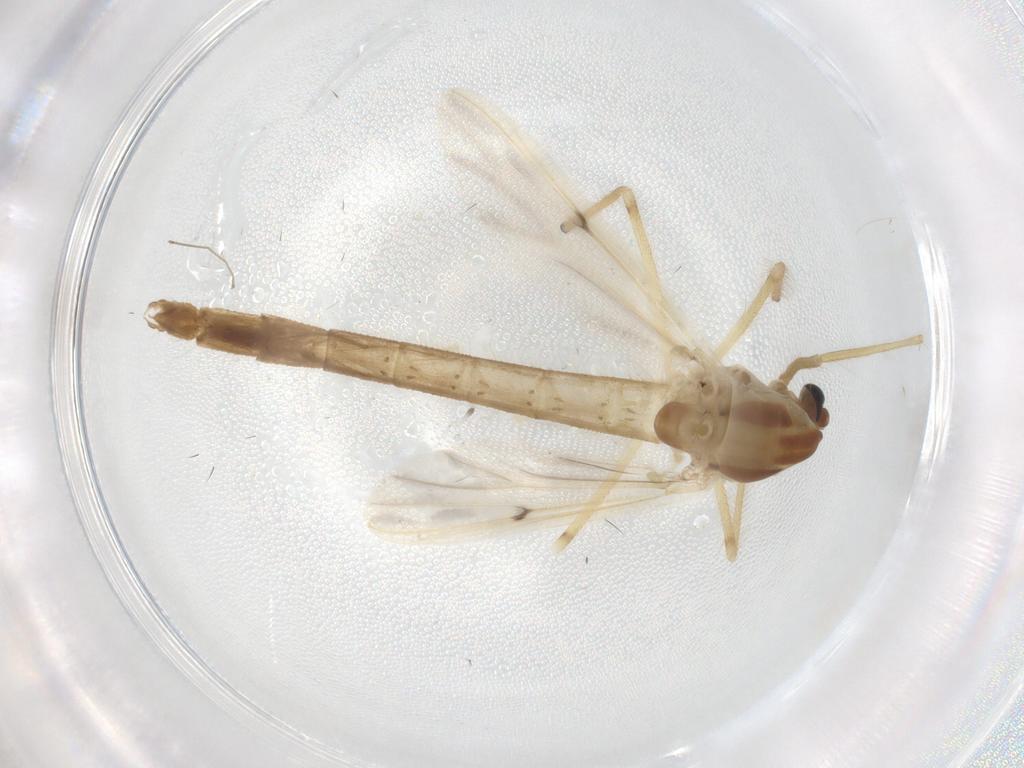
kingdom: Animalia
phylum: Arthropoda
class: Insecta
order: Diptera
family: Chironomidae
